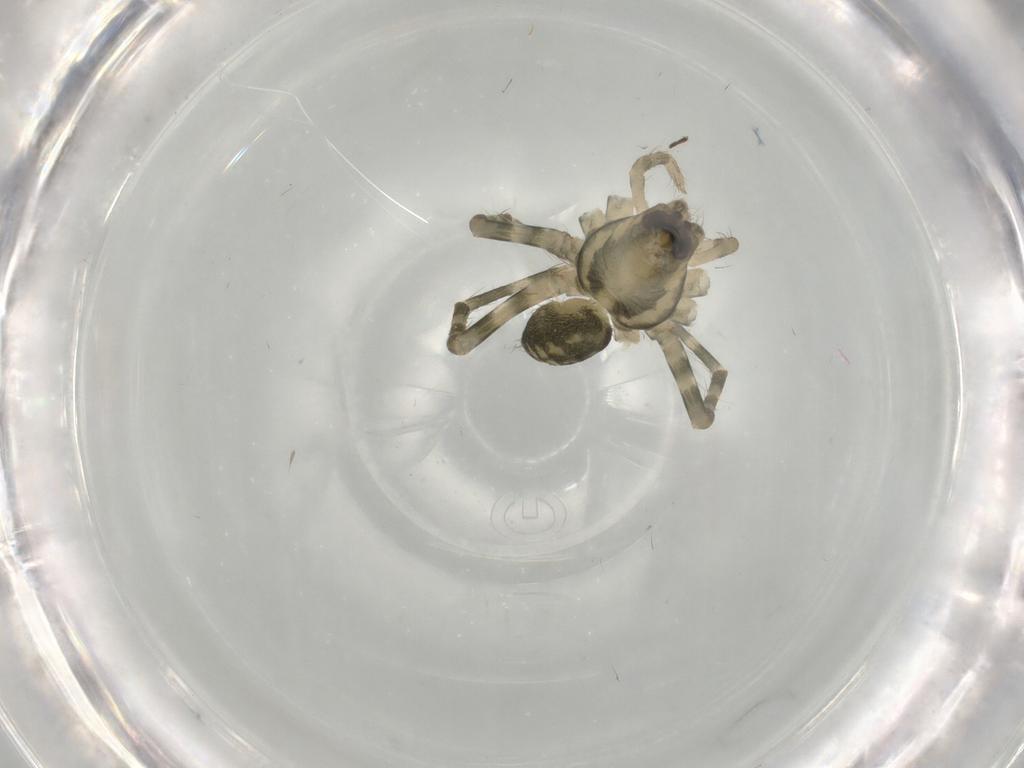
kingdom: Animalia
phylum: Arthropoda
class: Arachnida
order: Araneae
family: Ctenidae
